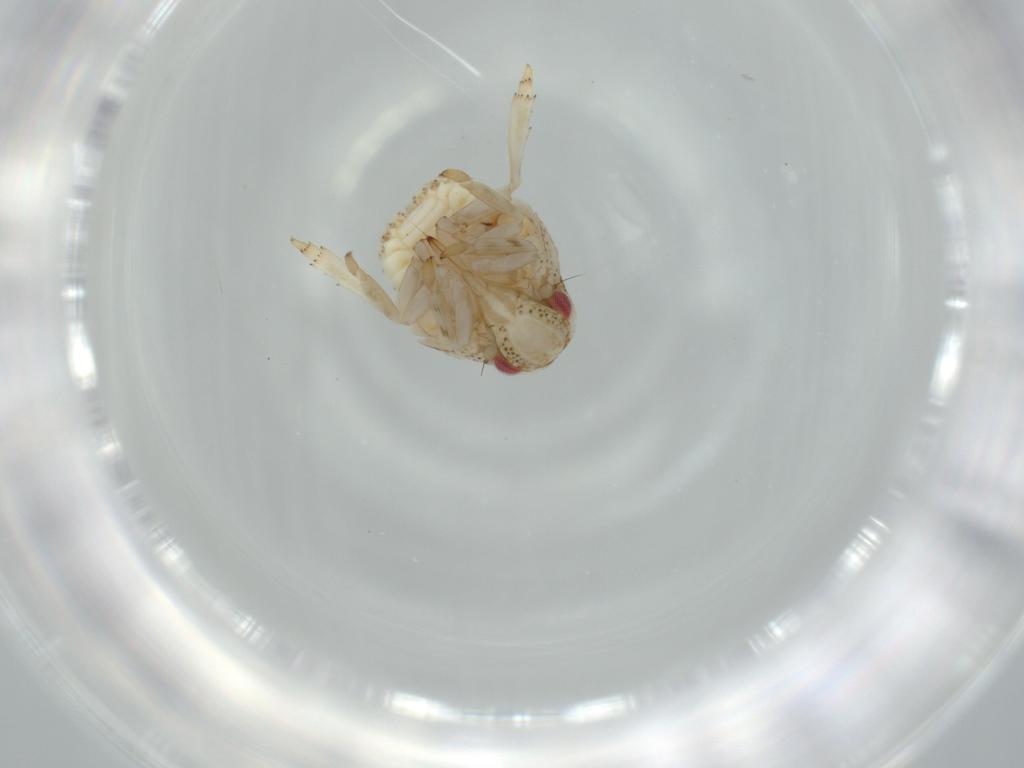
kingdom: Animalia
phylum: Arthropoda
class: Insecta
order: Hemiptera
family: Acanaloniidae
